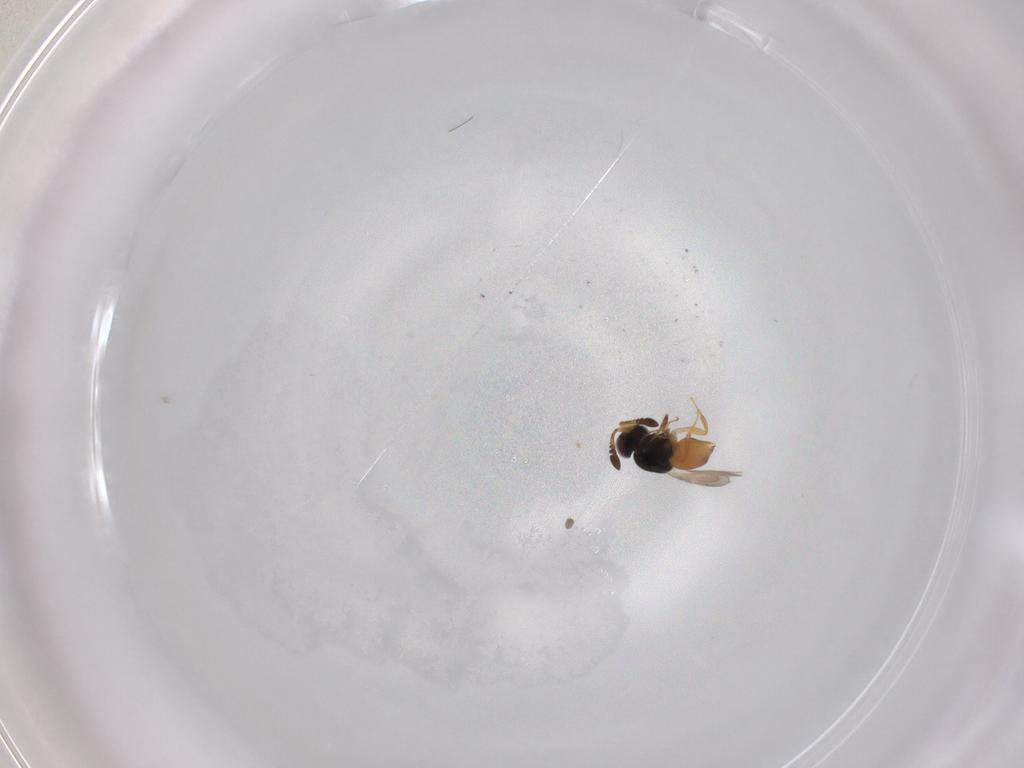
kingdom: Animalia
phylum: Arthropoda
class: Insecta
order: Hymenoptera
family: Evaniidae
